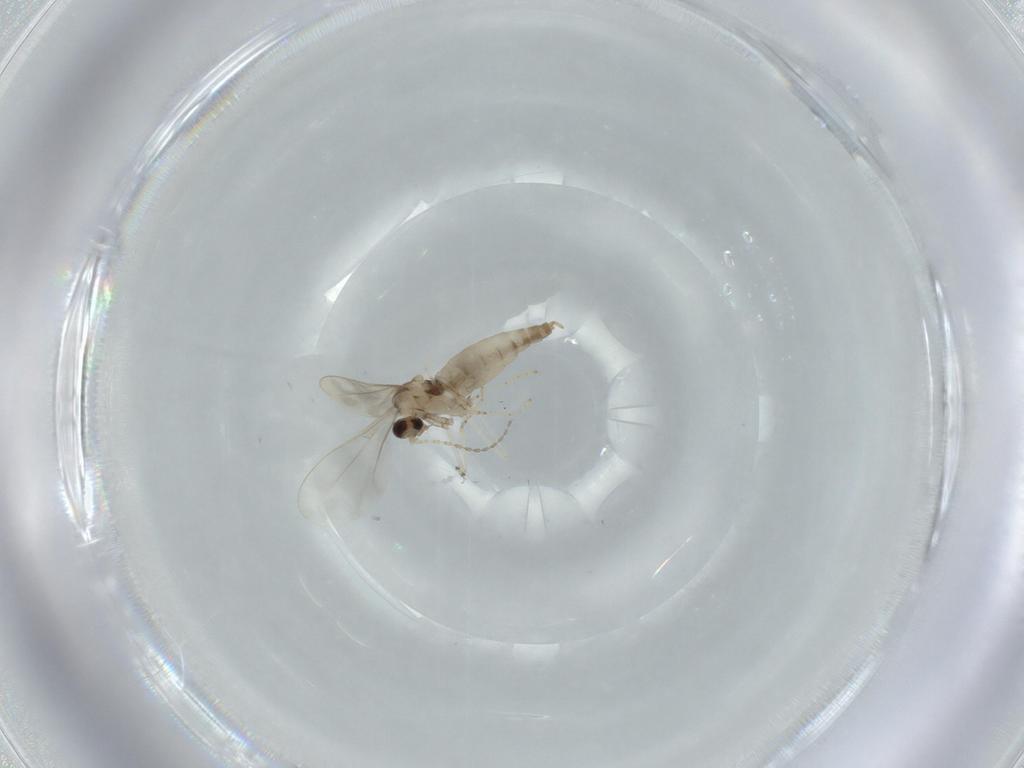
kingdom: Animalia
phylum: Arthropoda
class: Insecta
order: Diptera
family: Cecidomyiidae
